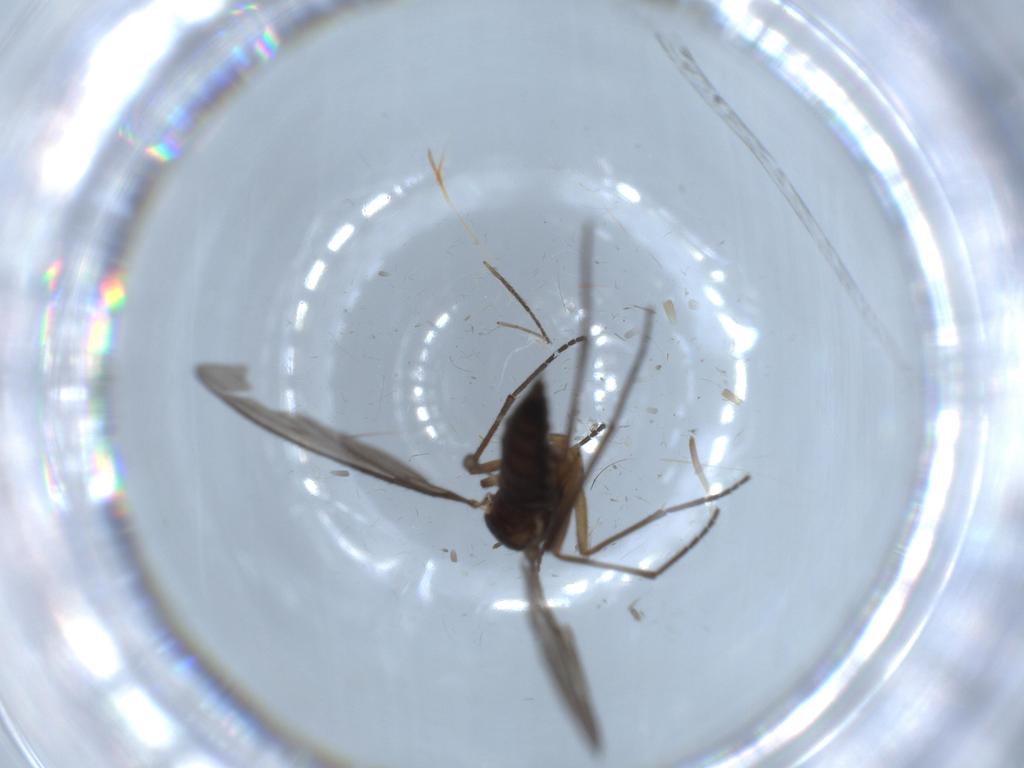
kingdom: Animalia
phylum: Arthropoda
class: Insecta
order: Diptera
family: Chironomidae
